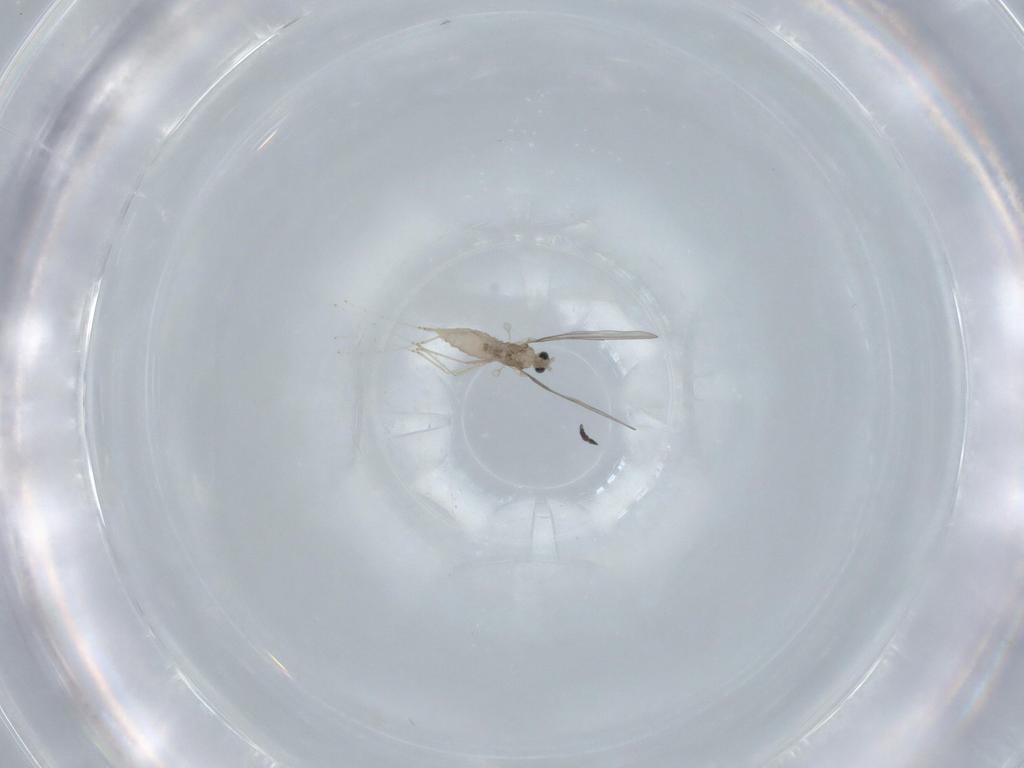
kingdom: Animalia
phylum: Arthropoda
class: Insecta
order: Diptera
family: Cecidomyiidae
